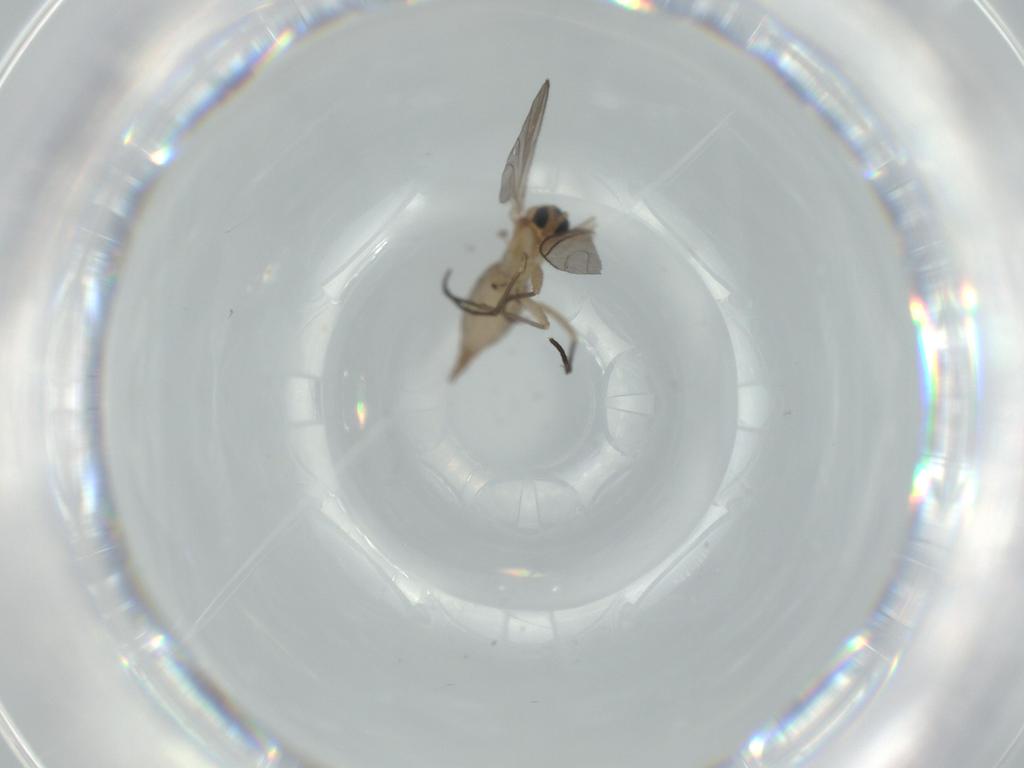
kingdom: Animalia
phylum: Arthropoda
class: Insecta
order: Diptera
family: Sciaridae
